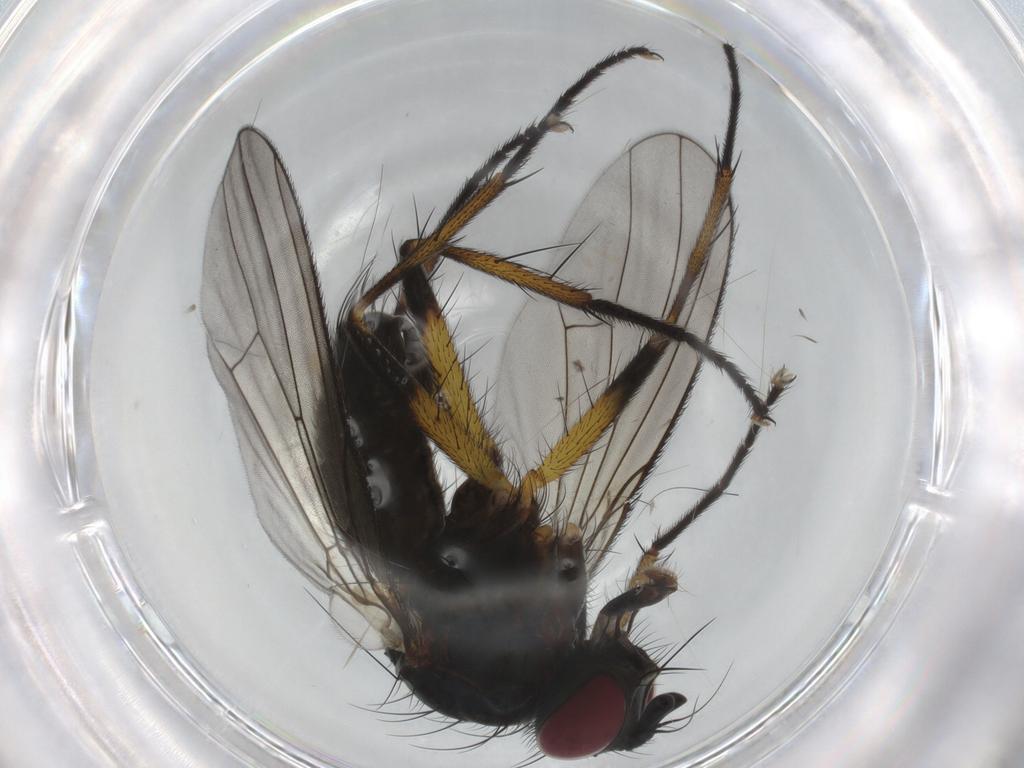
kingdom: Animalia
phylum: Arthropoda
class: Insecta
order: Diptera
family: Muscidae
